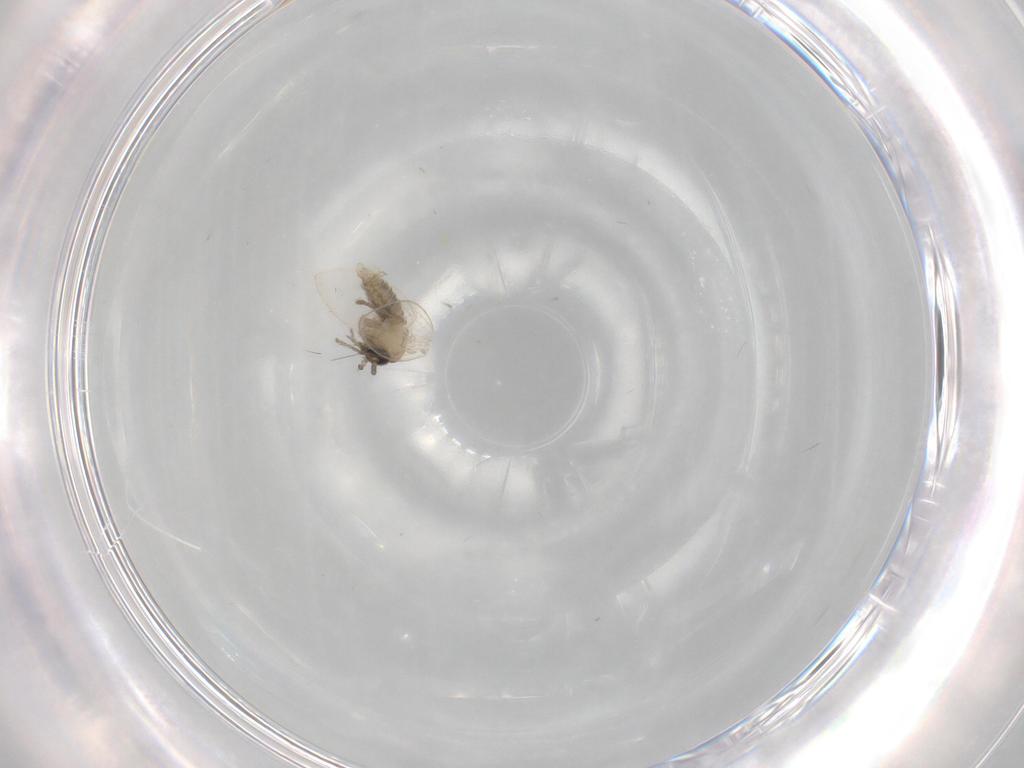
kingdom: Animalia
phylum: Arthropoda
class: Insecta
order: Diptera
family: Psychodidae
